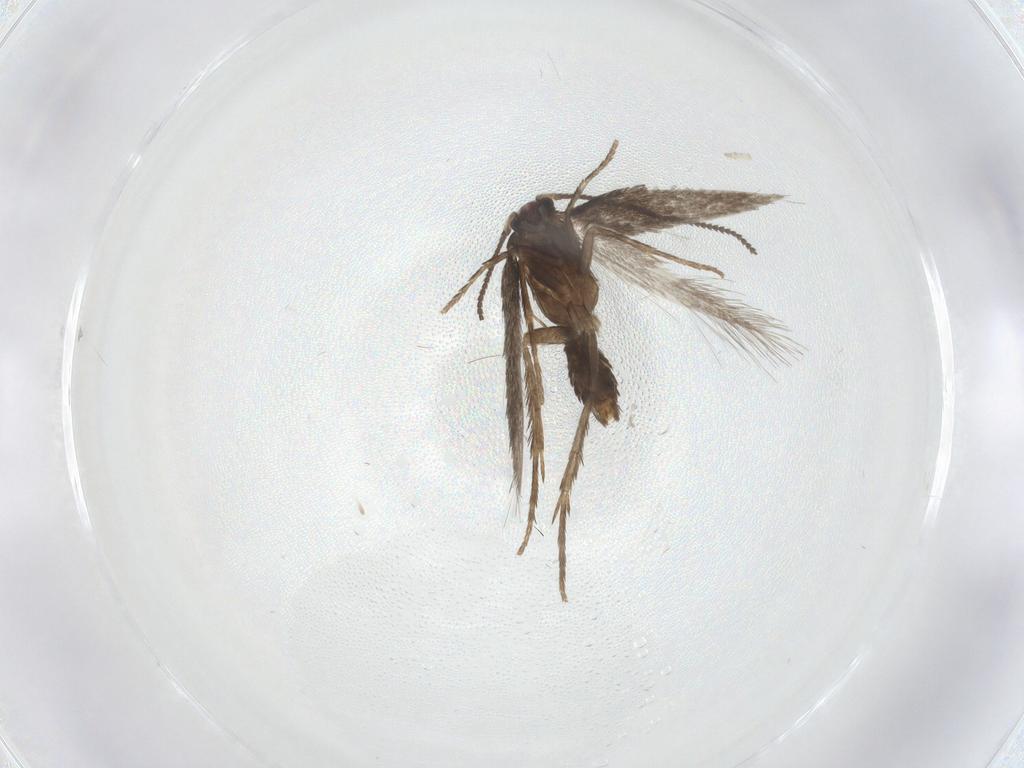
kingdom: Animalia
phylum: Arthropoda
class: Insecta
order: Lepidoptera
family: Nepticulidae
